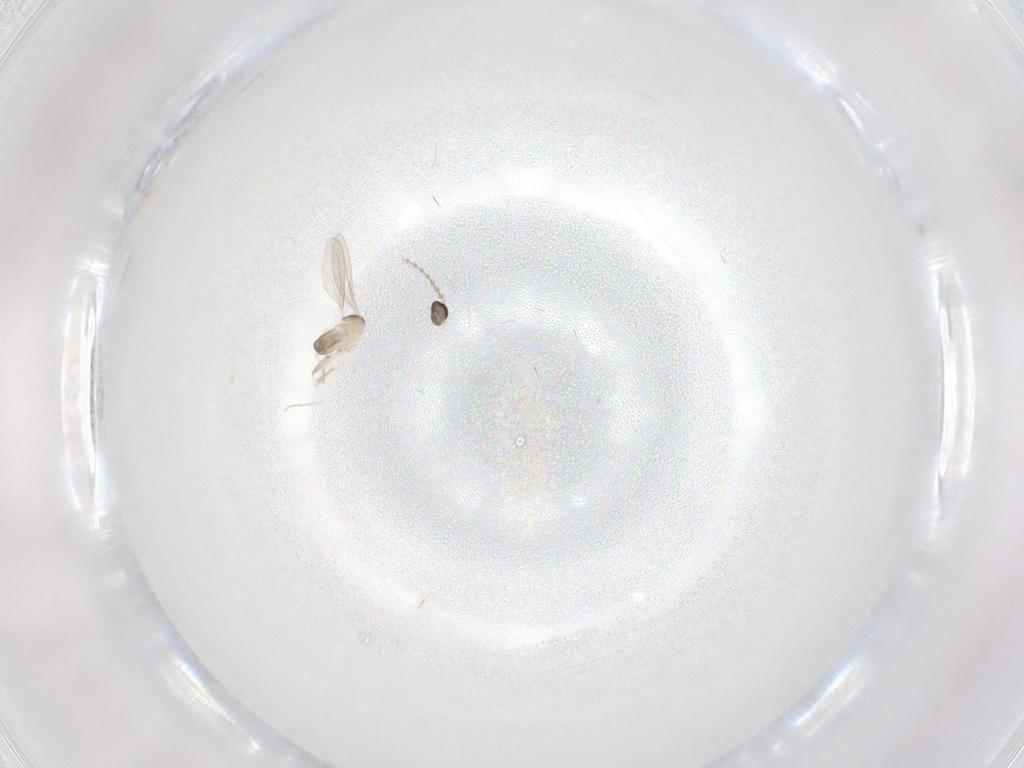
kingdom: Animalia
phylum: Arthropoda
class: Insecta
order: Diptera
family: Cecidomyiidae
